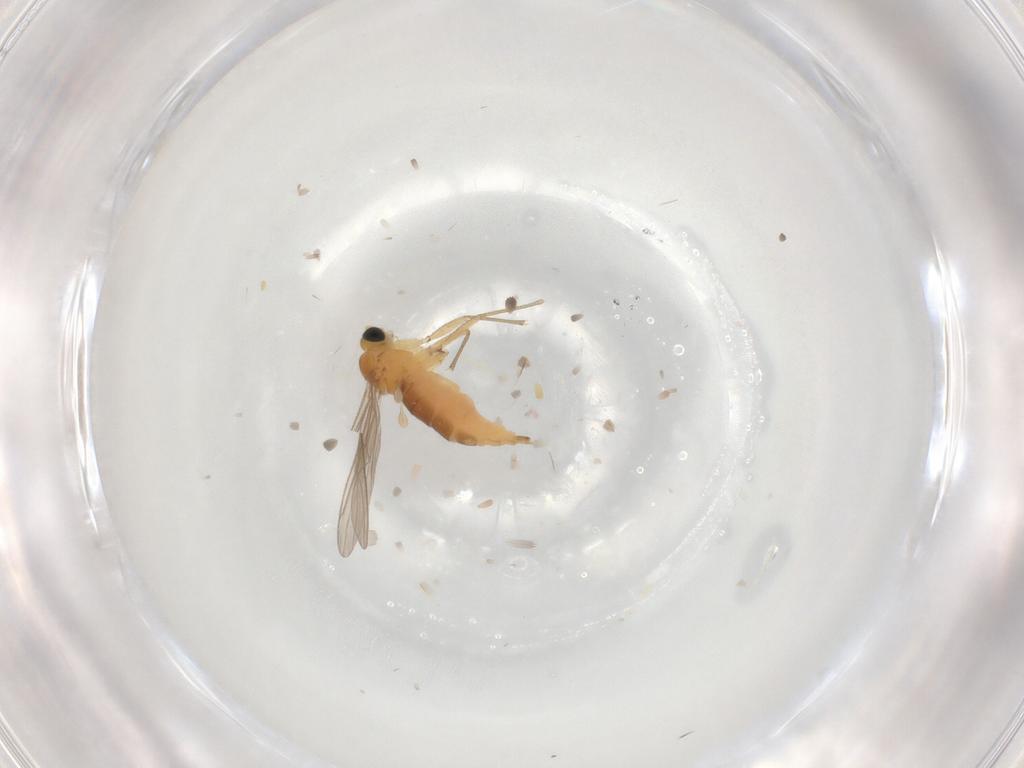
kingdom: Animalia
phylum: Arthropoda
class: Insecta
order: Diptera
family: Sciaridae
